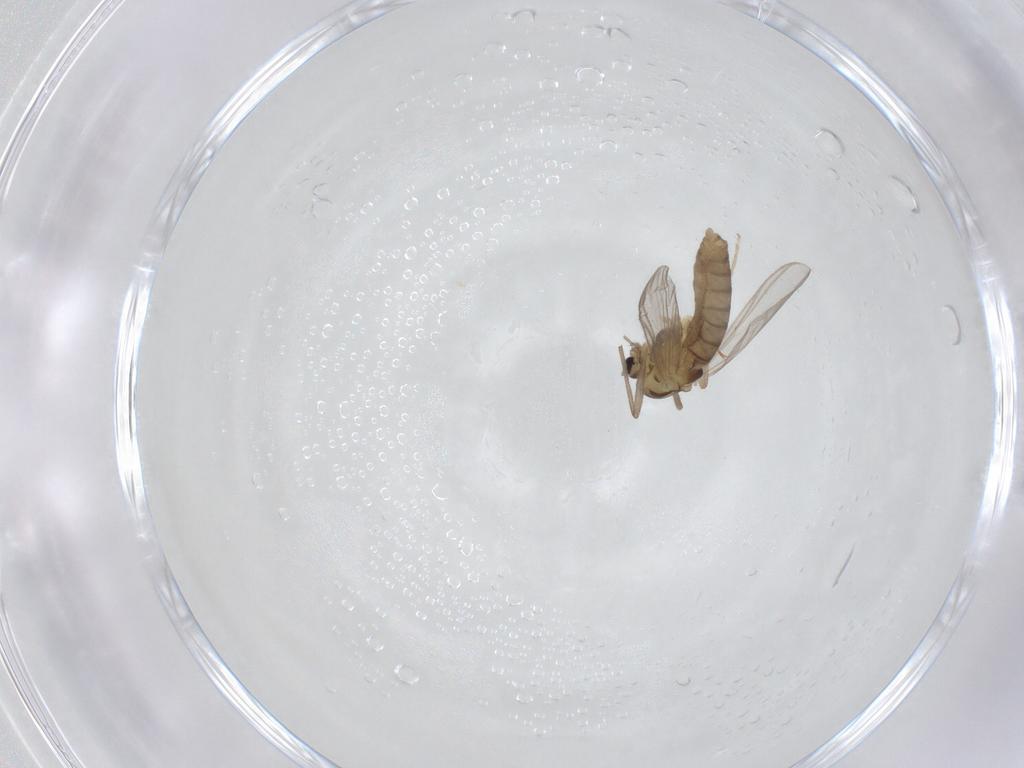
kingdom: Animalia
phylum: Arthropoda
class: Insecta
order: Diptera
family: Chironomidae
